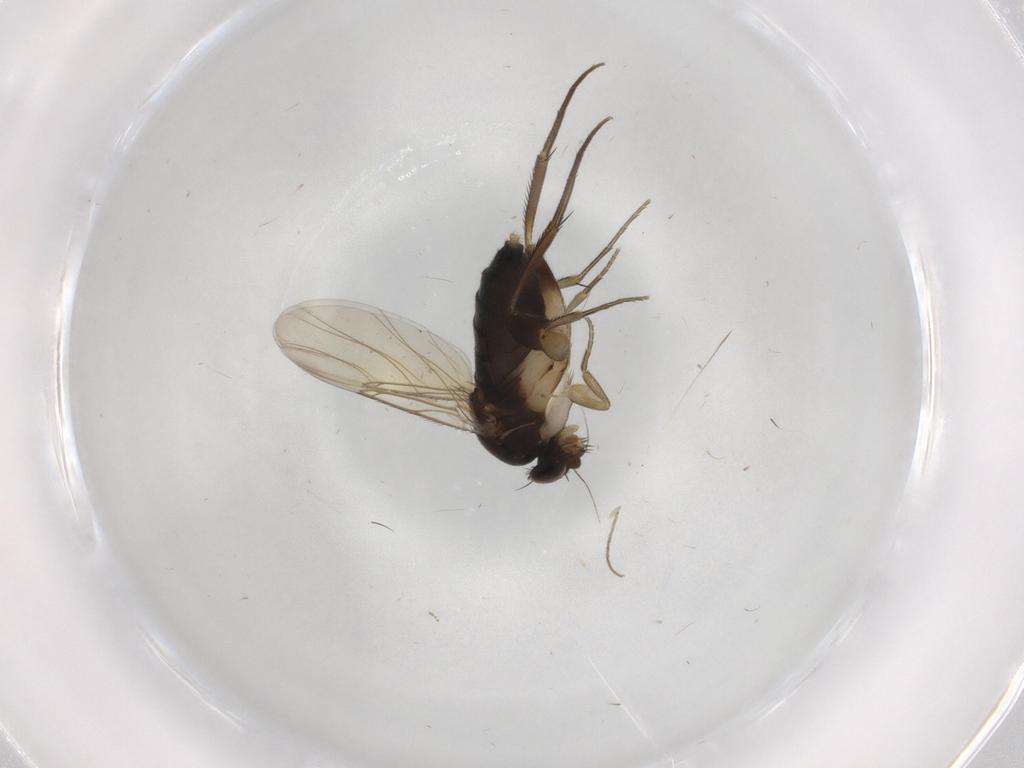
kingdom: Animalia
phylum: Arthropoda
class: Insecta
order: Diptera
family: Phoridae
